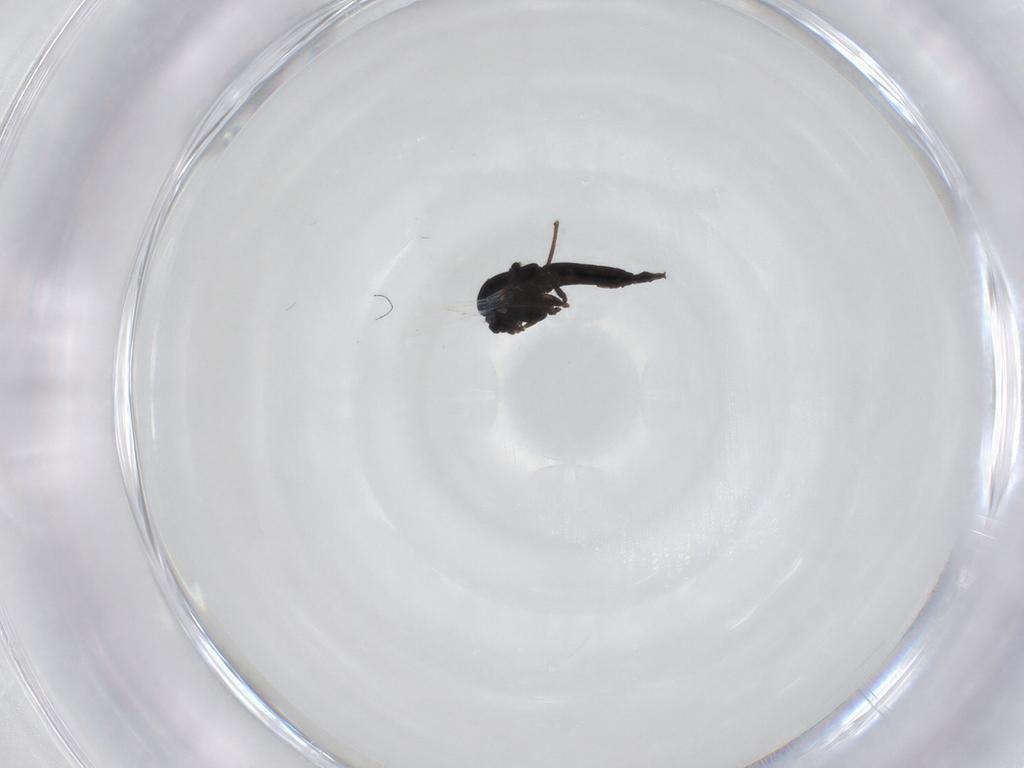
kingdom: Animalia
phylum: Arthropoda
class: Insecta
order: Diptera
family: Chironomidae
